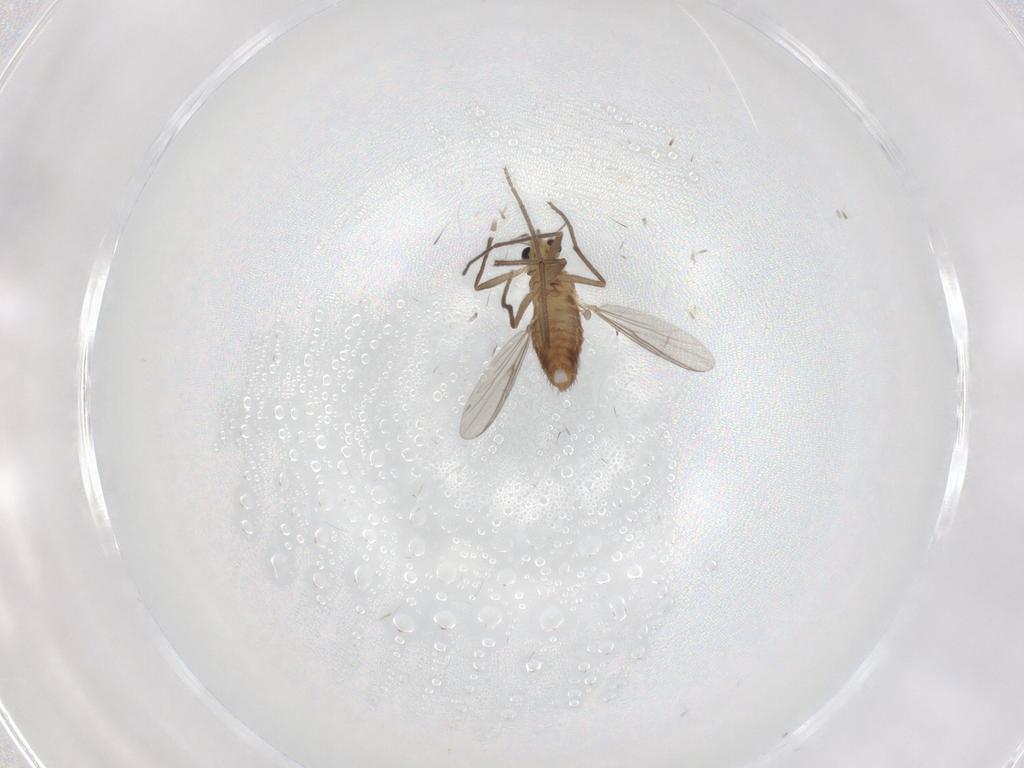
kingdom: Animalia
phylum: Arthropoda
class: Insecta
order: Diptera
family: Chironomidae
